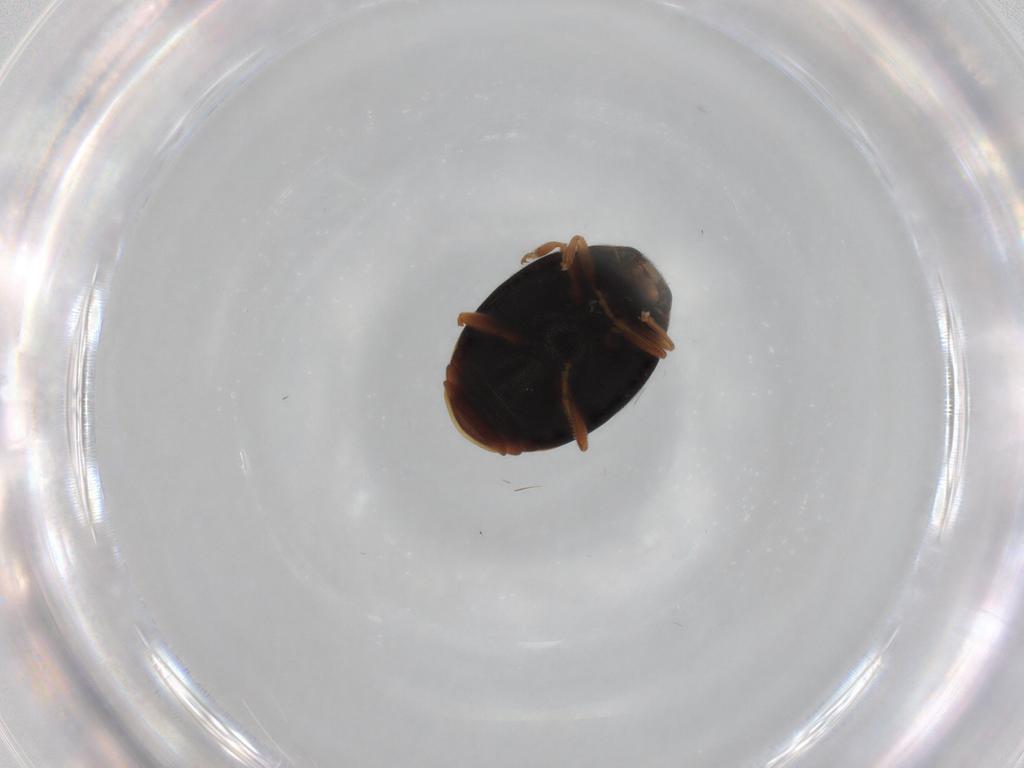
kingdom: Animalia
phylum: Arthropoda
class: Insecta
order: Coleoptera
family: Coccinellidae
